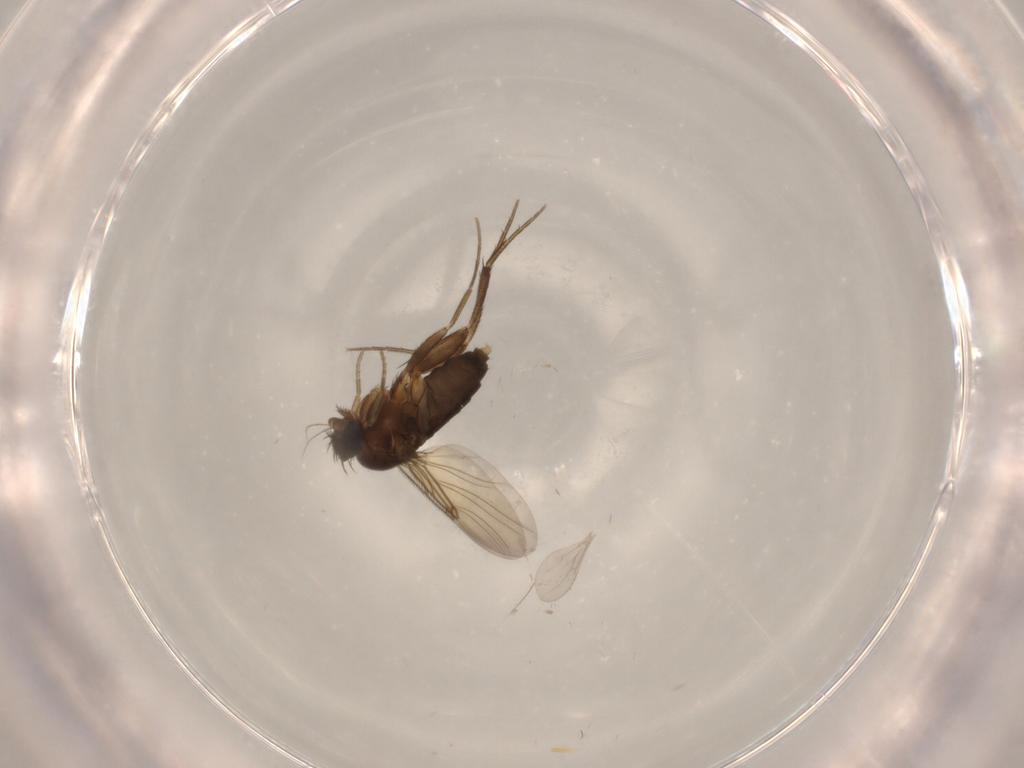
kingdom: Animalia
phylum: Arthropoda
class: Insecta
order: Diptera
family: Phoridae
